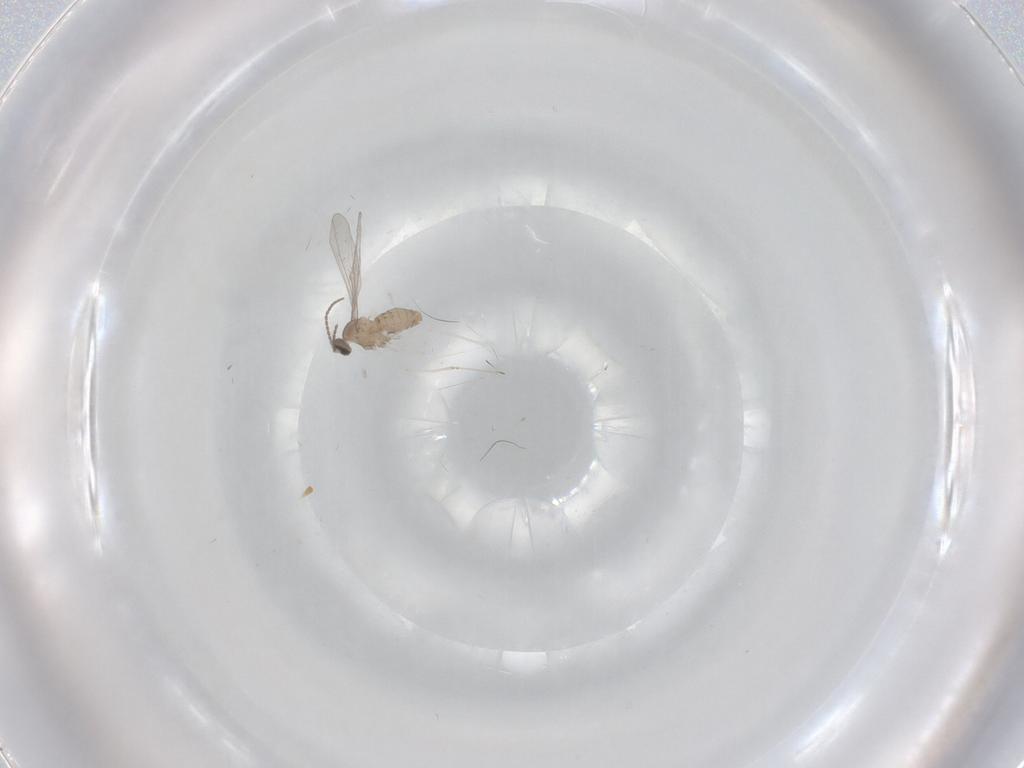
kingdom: Animalia
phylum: Arthropoda
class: Insecta
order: Diptera
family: Cecidomyiidae
